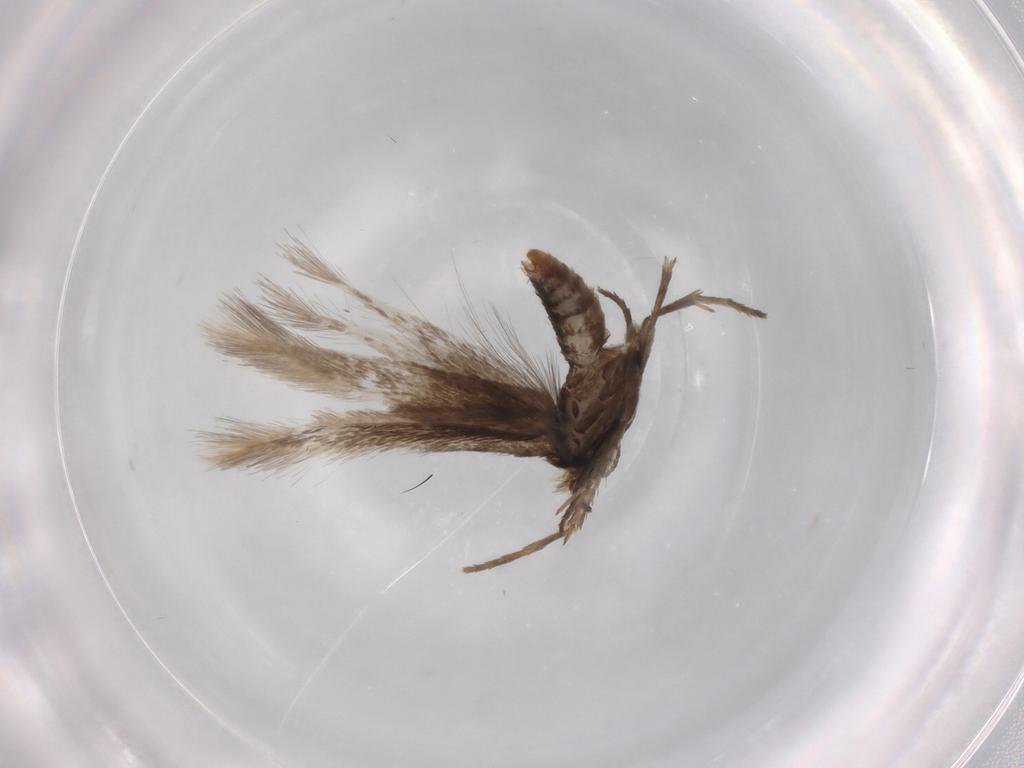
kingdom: Animalia
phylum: Arthropoda
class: Insecta
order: Lepidoptera
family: Nepticulidae
